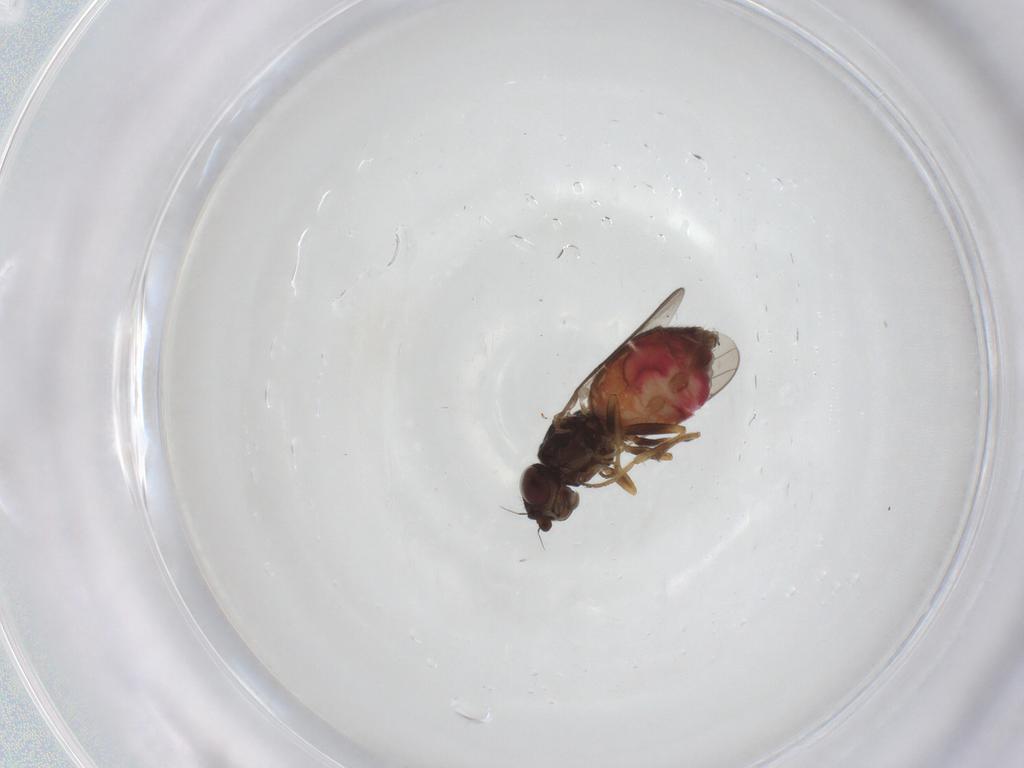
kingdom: Animalia
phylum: Arthropoda
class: Insecta
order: Diptera
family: Chloropidae
